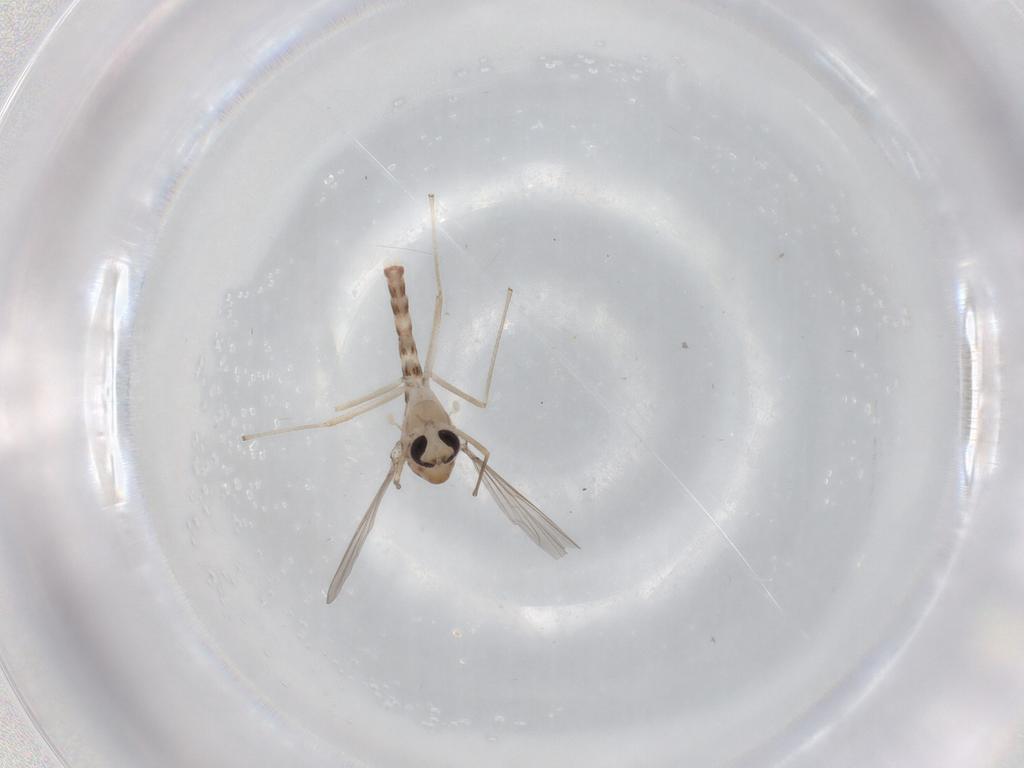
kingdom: Animalia
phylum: Arthropoda
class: Insecta
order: Diptera
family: Chironomidae
